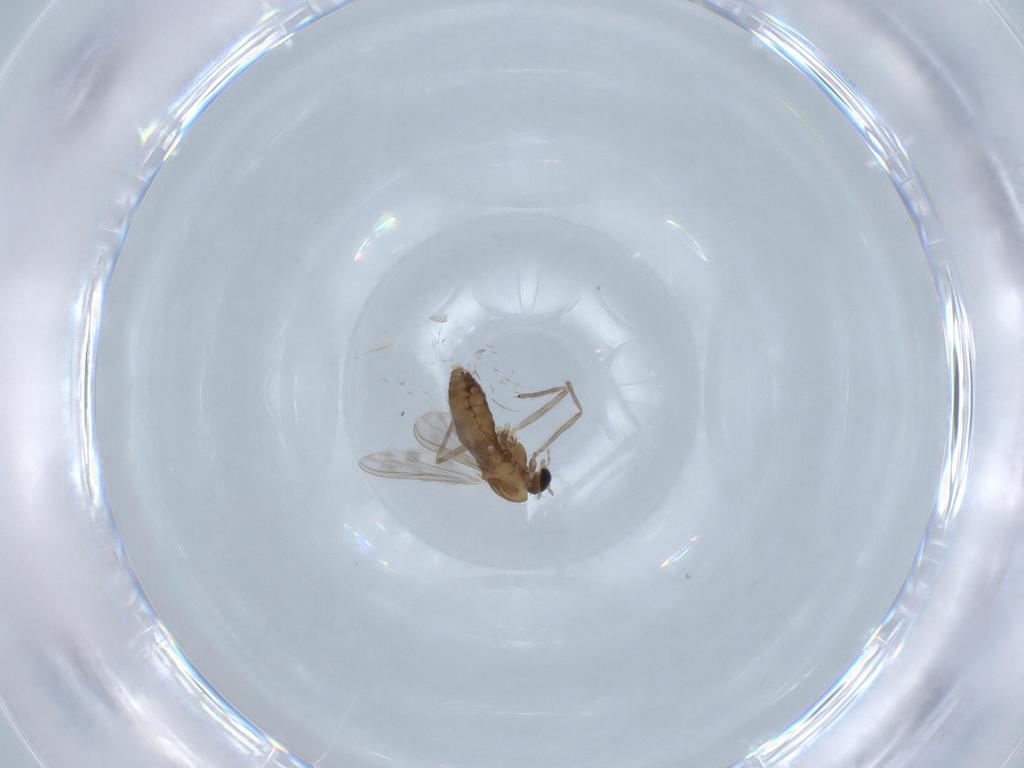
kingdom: Animalia
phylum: Arthropoda
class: Insecta
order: Diptera
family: Chironomidae
